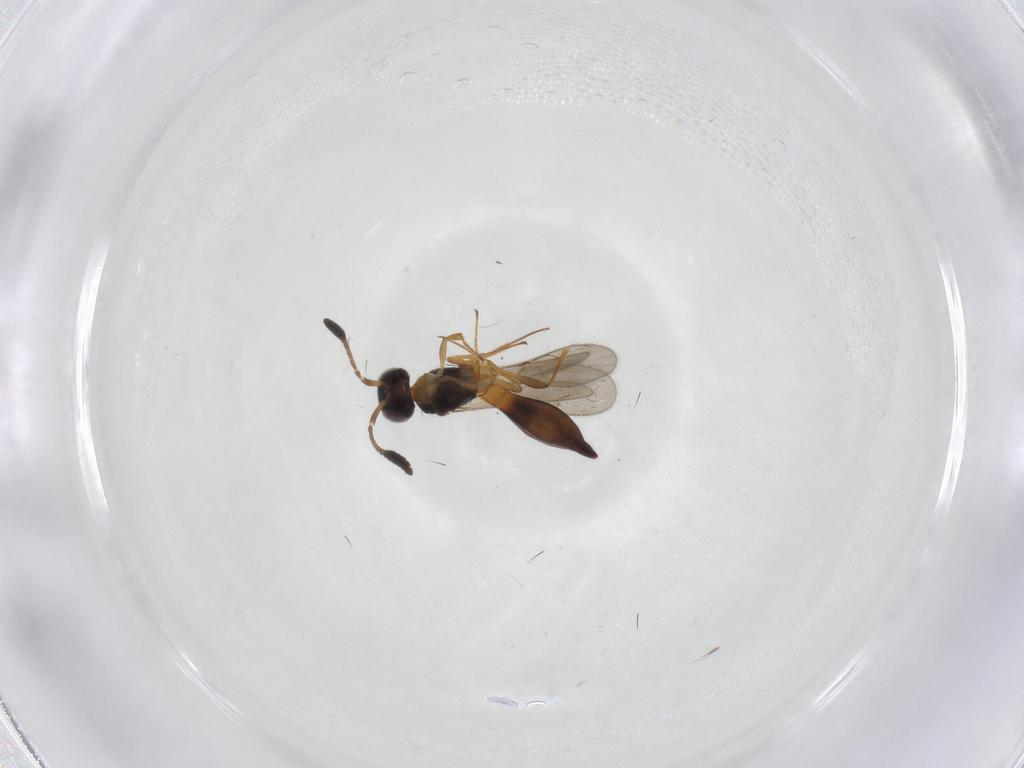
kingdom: Animalia
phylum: Arthropoda
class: Insecta
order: Hymenoptera
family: Scelionidae
